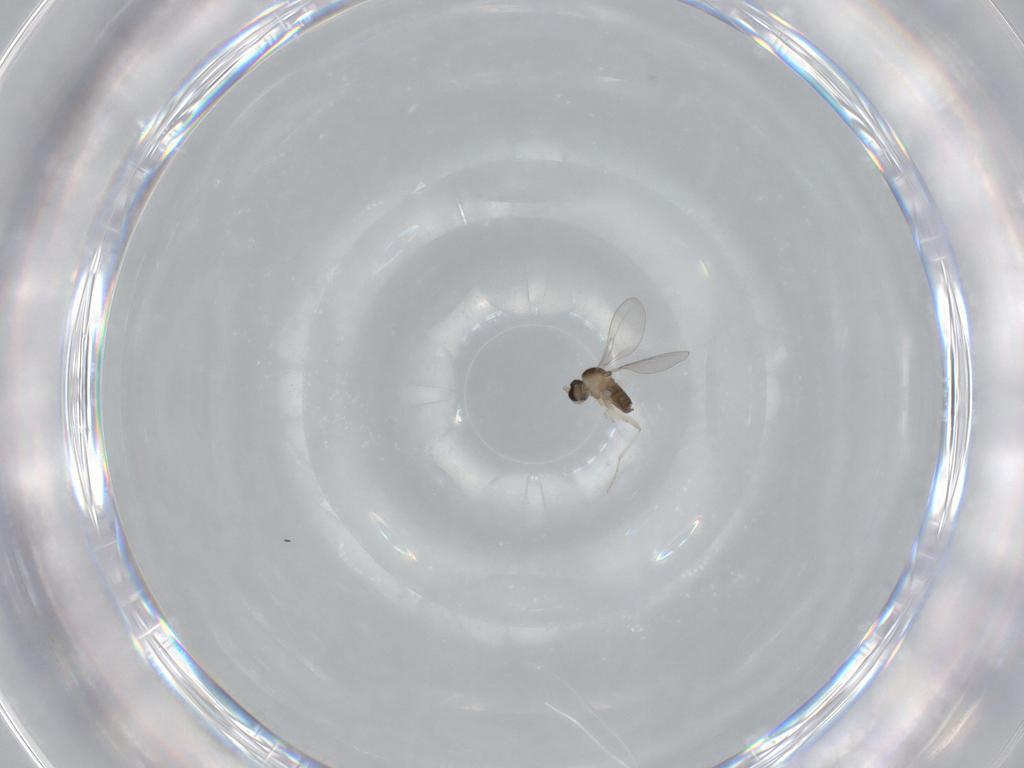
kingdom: Animalia
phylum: Arthropoda
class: Insecta
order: Diptera
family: Cecidomyiidae
